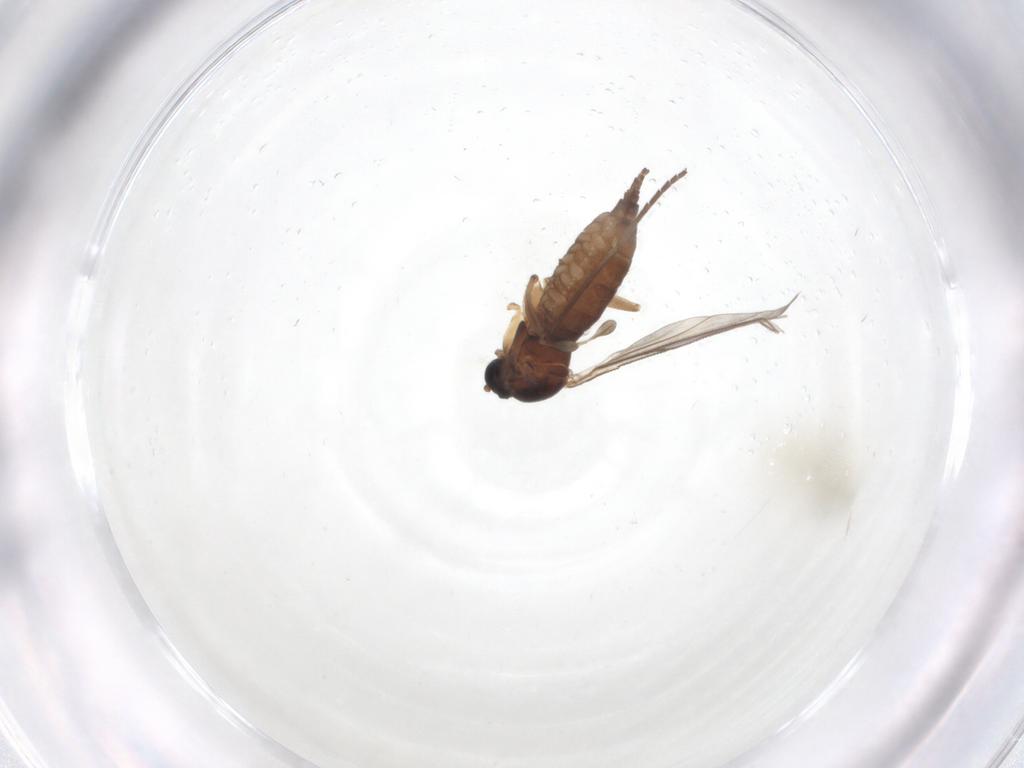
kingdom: Animalia
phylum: Arthropoda
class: Insecta
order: Diptera
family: Sciaridae
